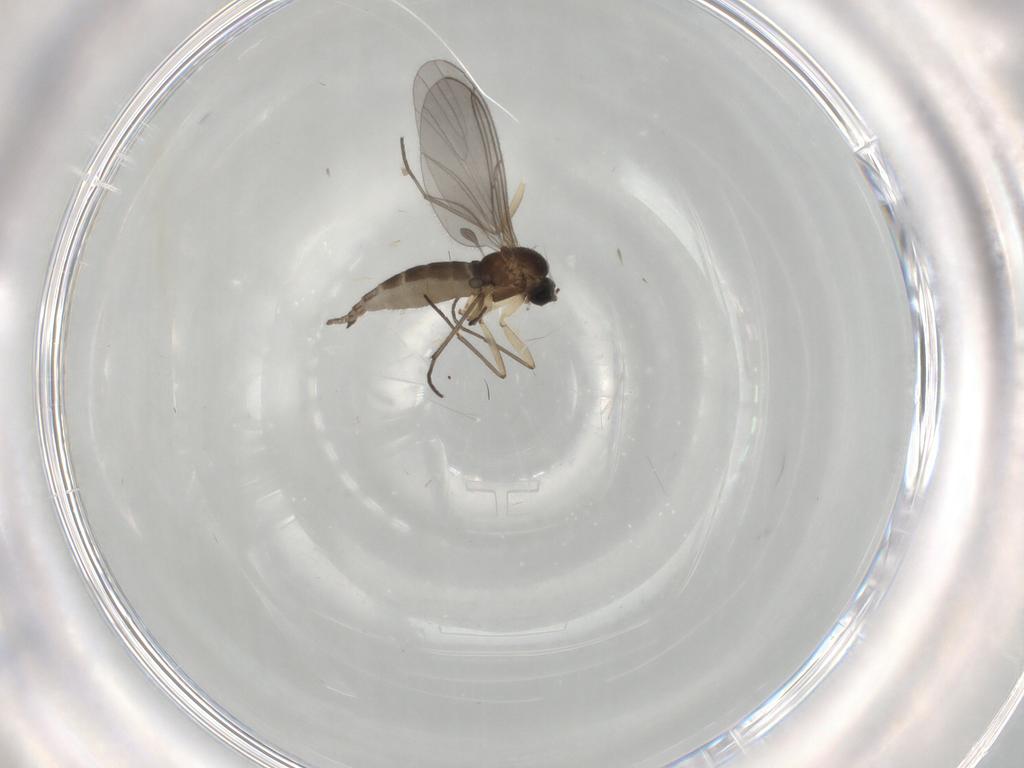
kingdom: Animalia
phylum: Arthropoda
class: Insecta
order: Diptera
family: Sciaridae
